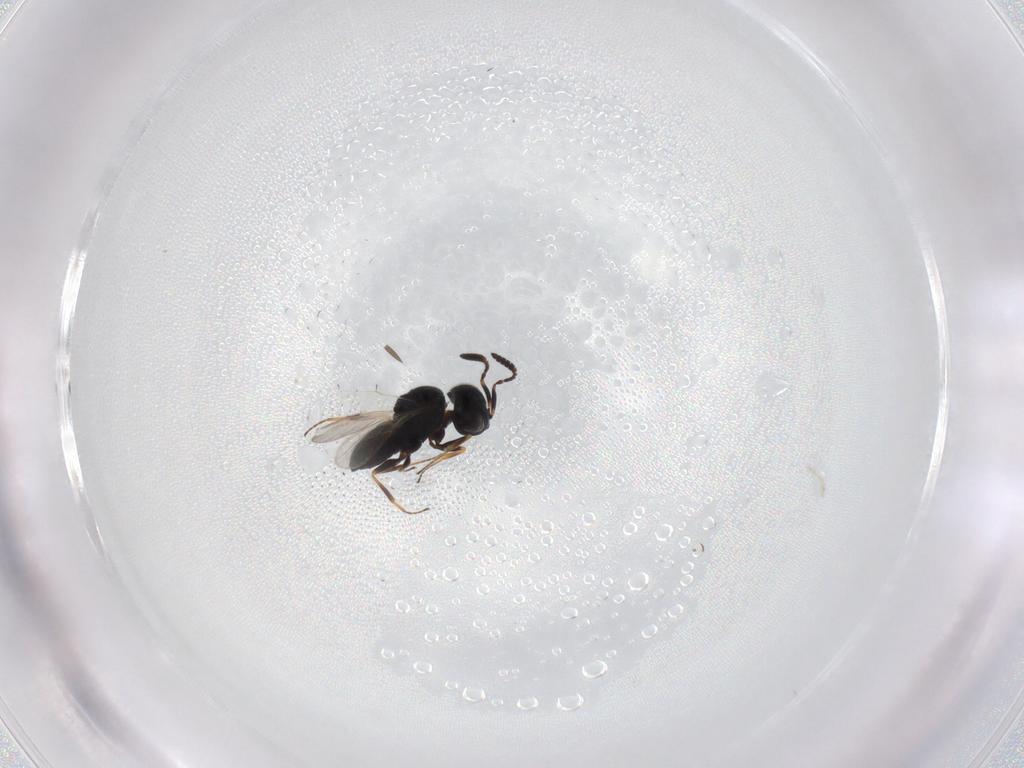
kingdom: Animalia
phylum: Arthropoda
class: Insecta
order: Hymenoptera
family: Scelionidae
